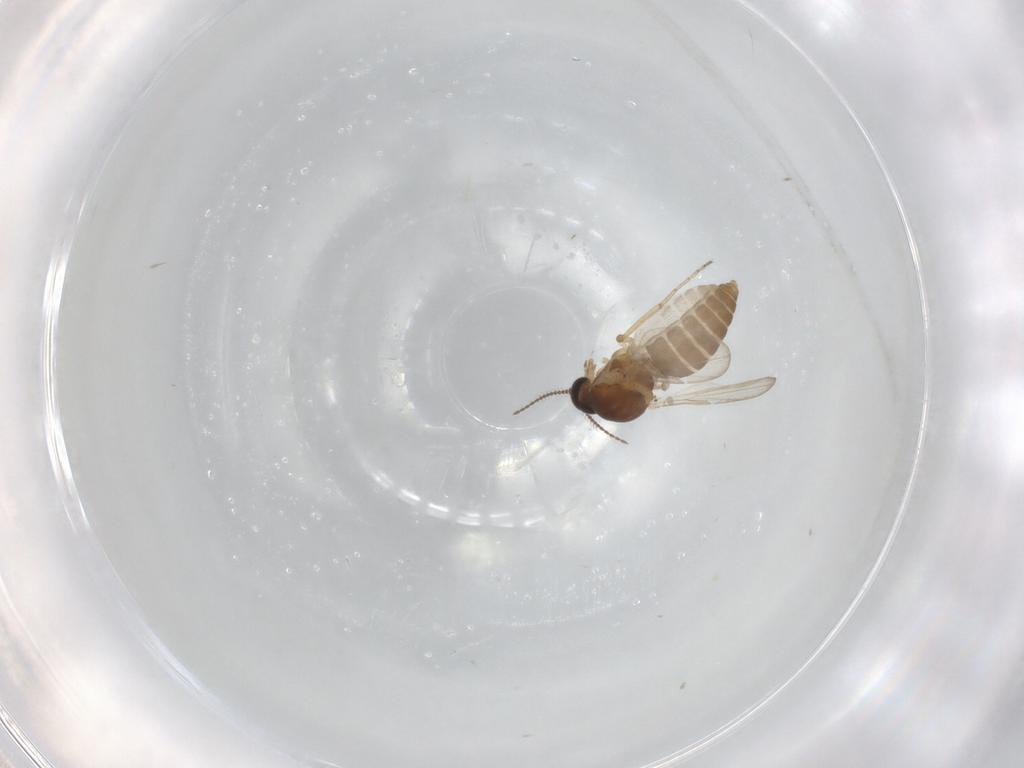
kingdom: Animalia
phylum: Arthropoda
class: Insecta
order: Diptera
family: Ceratopogonidae
